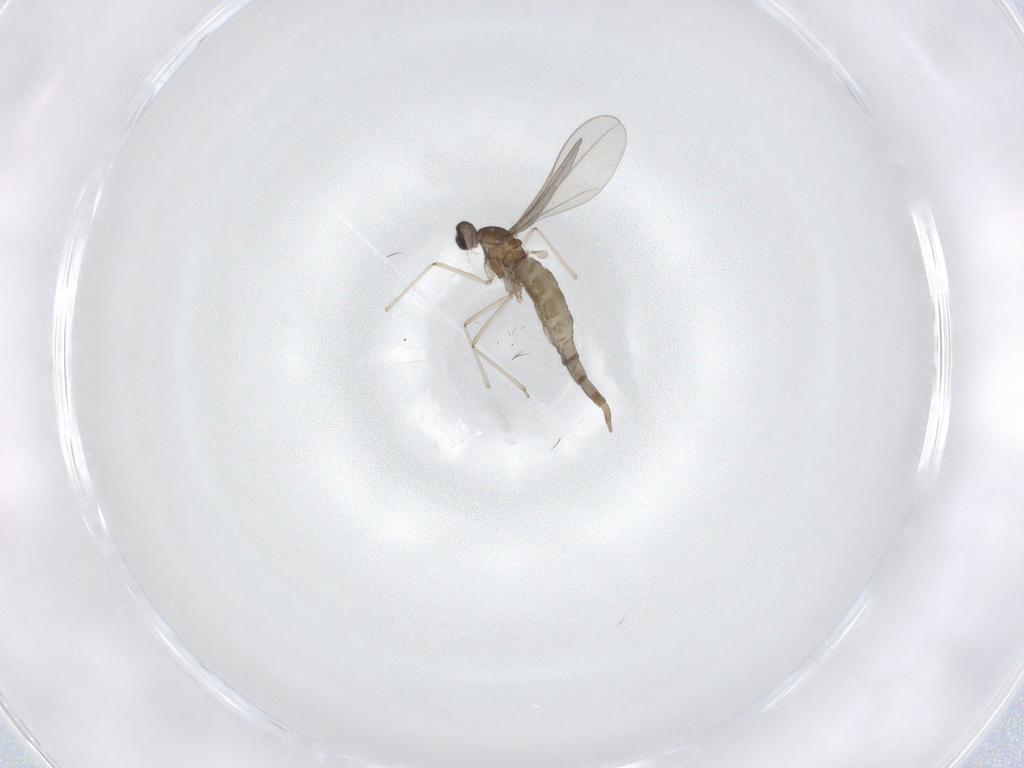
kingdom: Animalia
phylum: Arthropoda
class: Insecta
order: Diptera
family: Cecidomyiidae
